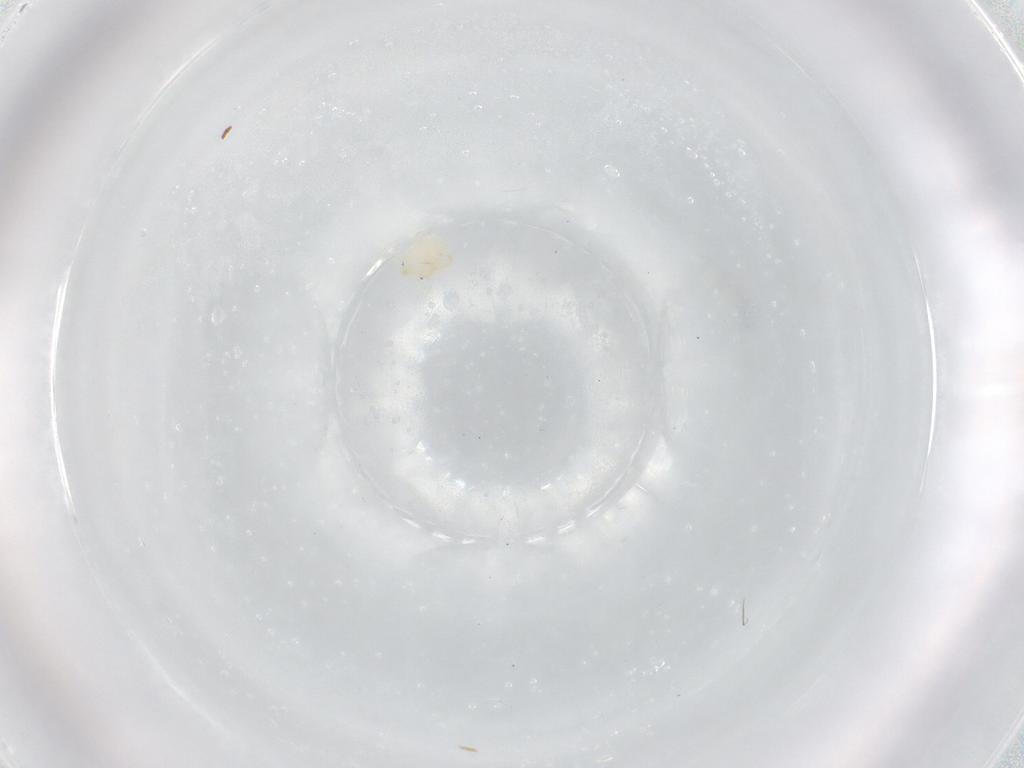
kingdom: Animalia
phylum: Arthropoda
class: Arachnida
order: Trombidiformes
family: Sperchontidae
